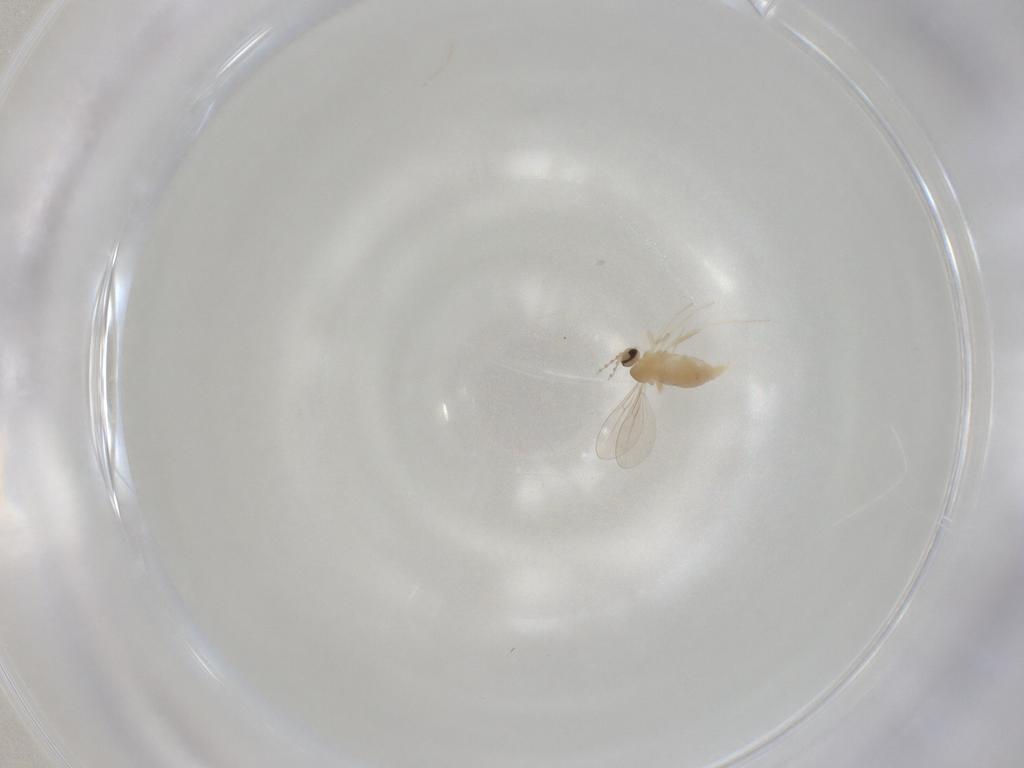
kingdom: Animalia
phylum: Arthropoda
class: Insecta
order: Diptera
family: Cecidomyiidae
